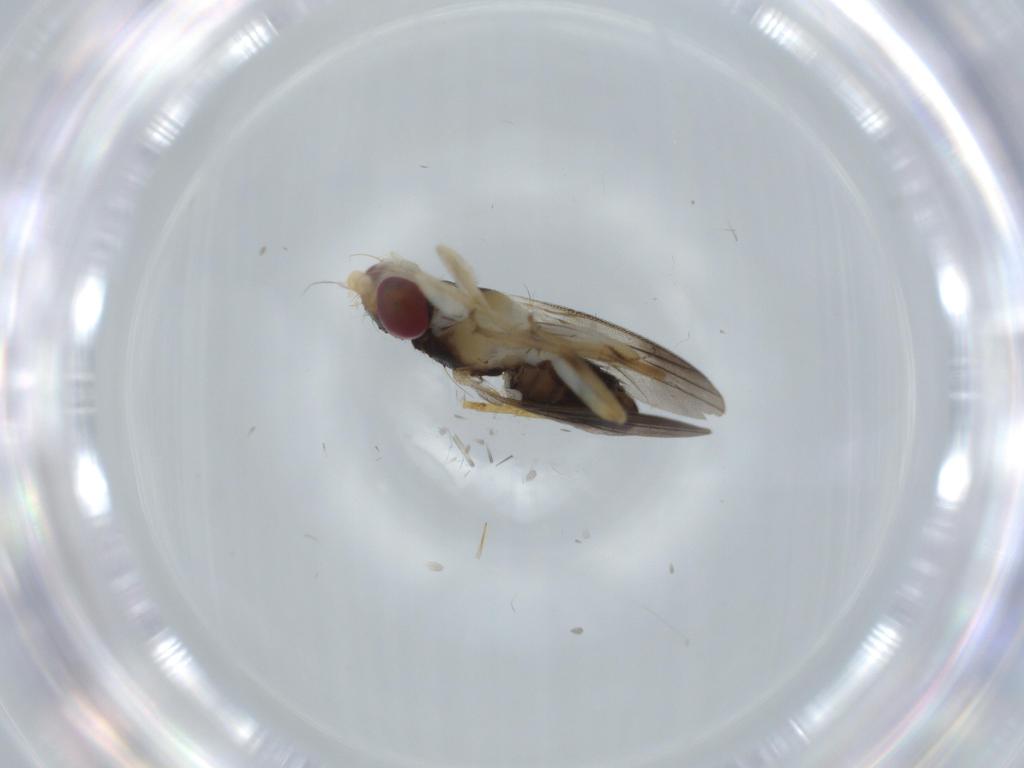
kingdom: Animalia
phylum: Arthropoda
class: Insecta
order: Diptera
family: Clusiidae
